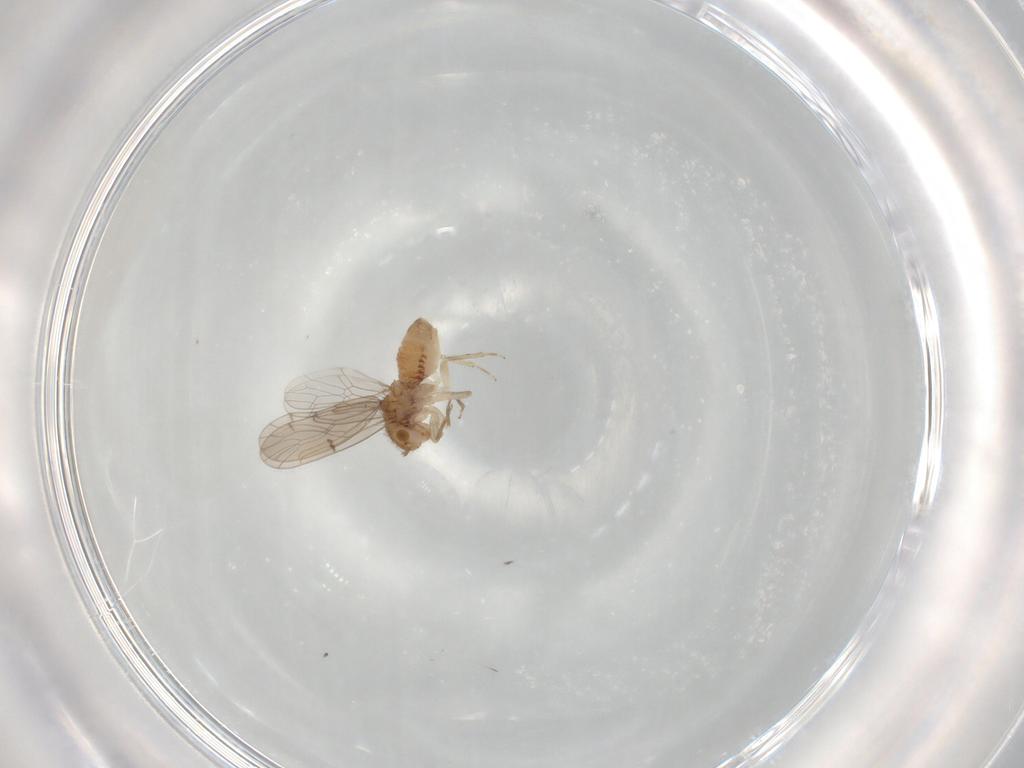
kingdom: Animalia
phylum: Arthropoda
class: Insecta
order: Psocodea
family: Ectopsocidae
